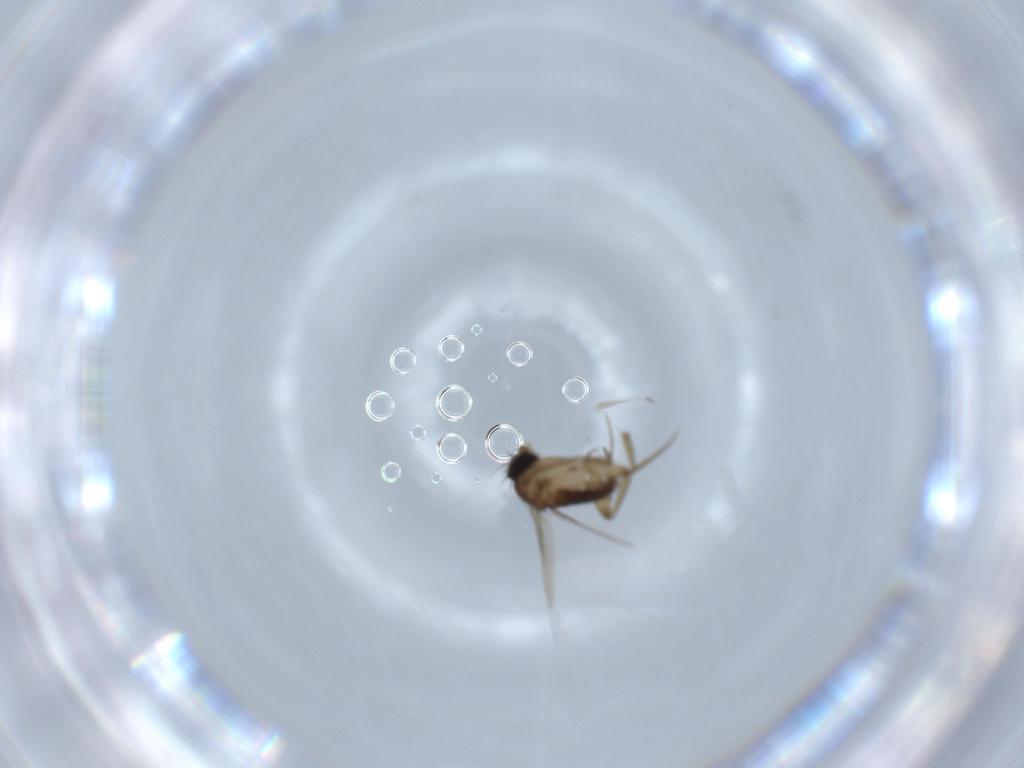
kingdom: Animalia
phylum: Arthropoda
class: Insecta
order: Diptera
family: Phoridae
